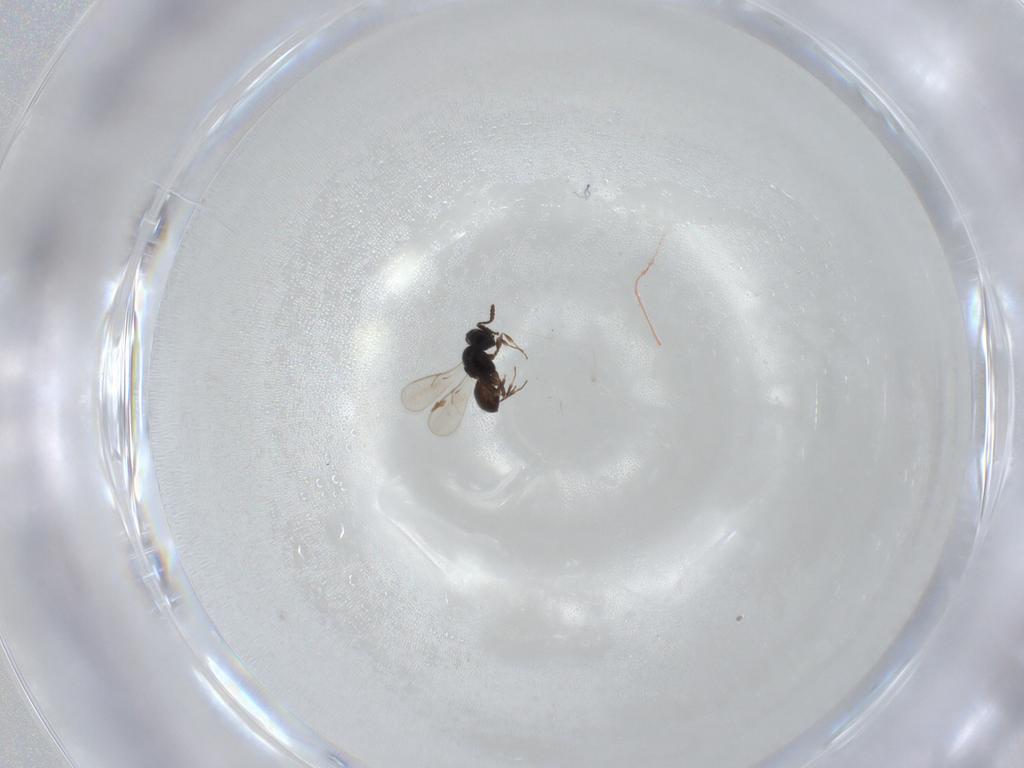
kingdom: Animalia
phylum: Arthropoda
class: Insecta
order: Hymenoptera
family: Scelionidae
